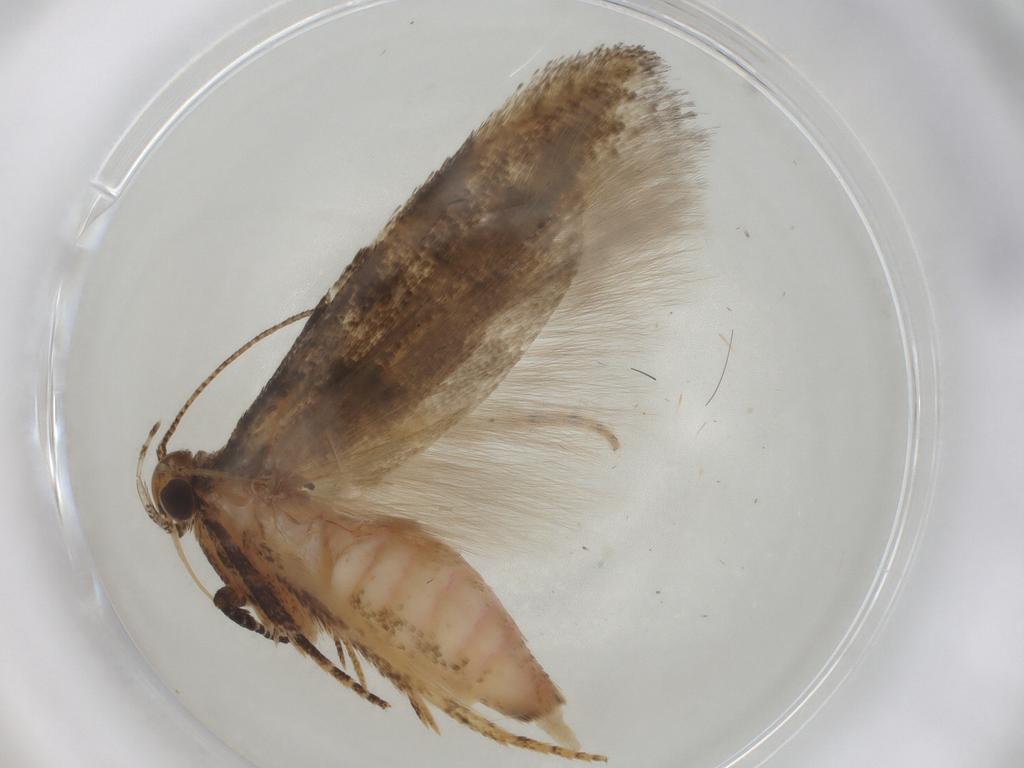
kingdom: Animalia
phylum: Arthropoda
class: Insecta
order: Lepidoptera
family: Gelechiidae
